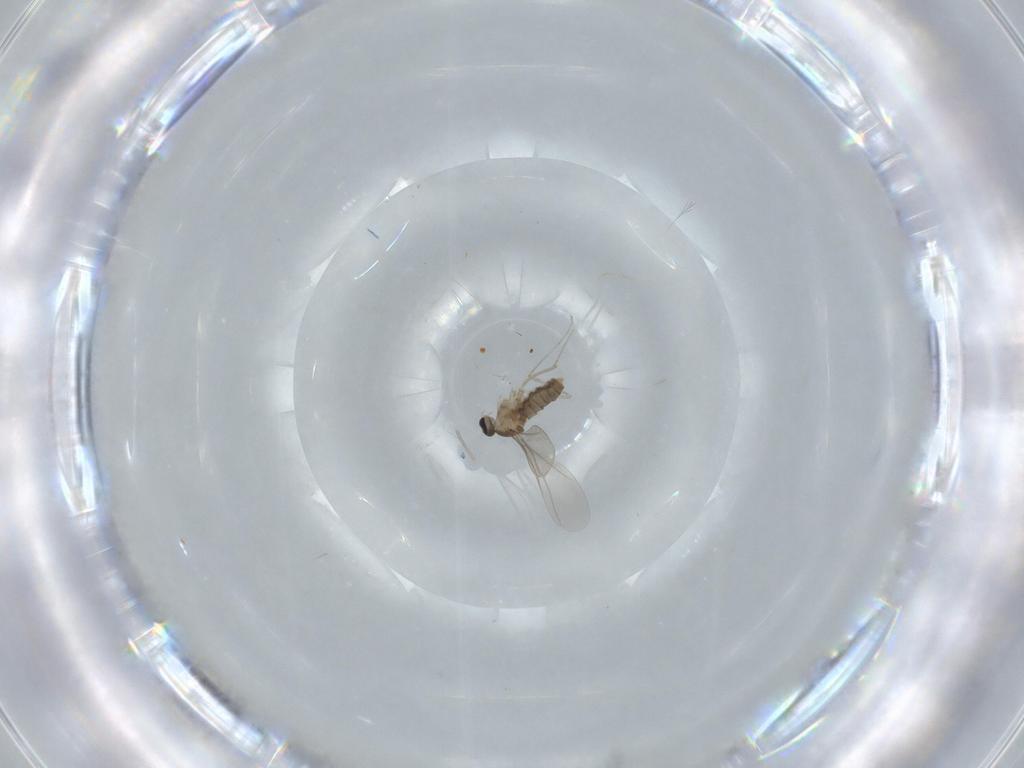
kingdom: Animalia
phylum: Arthropoda
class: Insecta
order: Diptera
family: Cecidomyiidae
